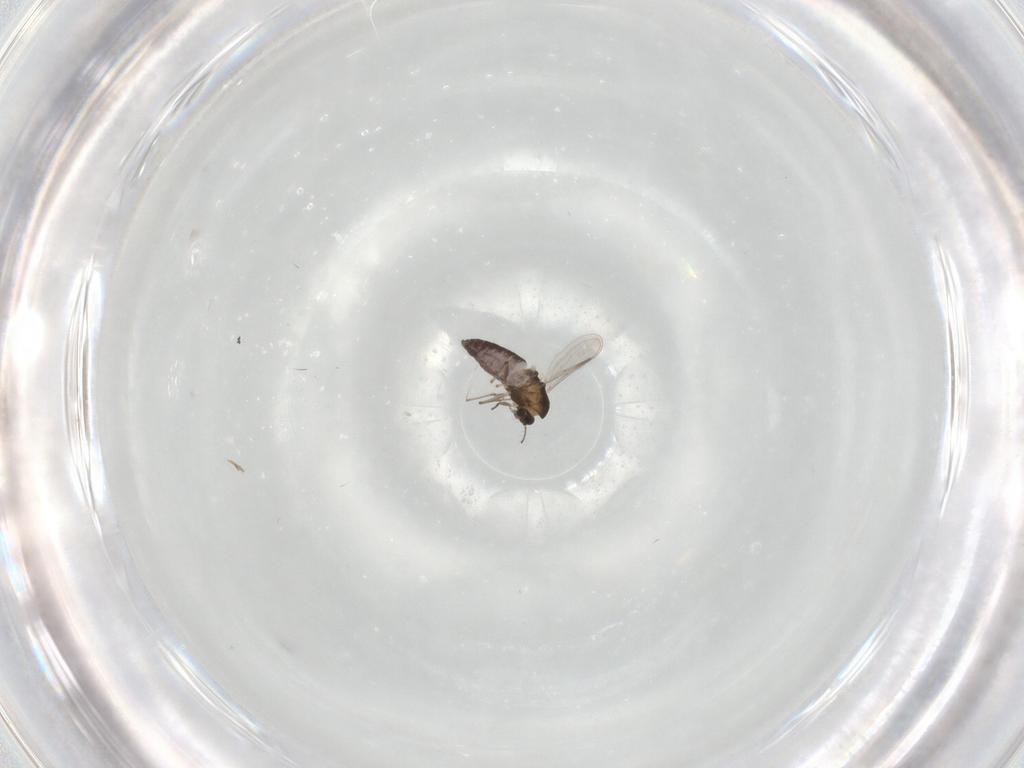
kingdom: Animalia
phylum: Arthropoda
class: Insecta
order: Diptera
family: Chironomidae
